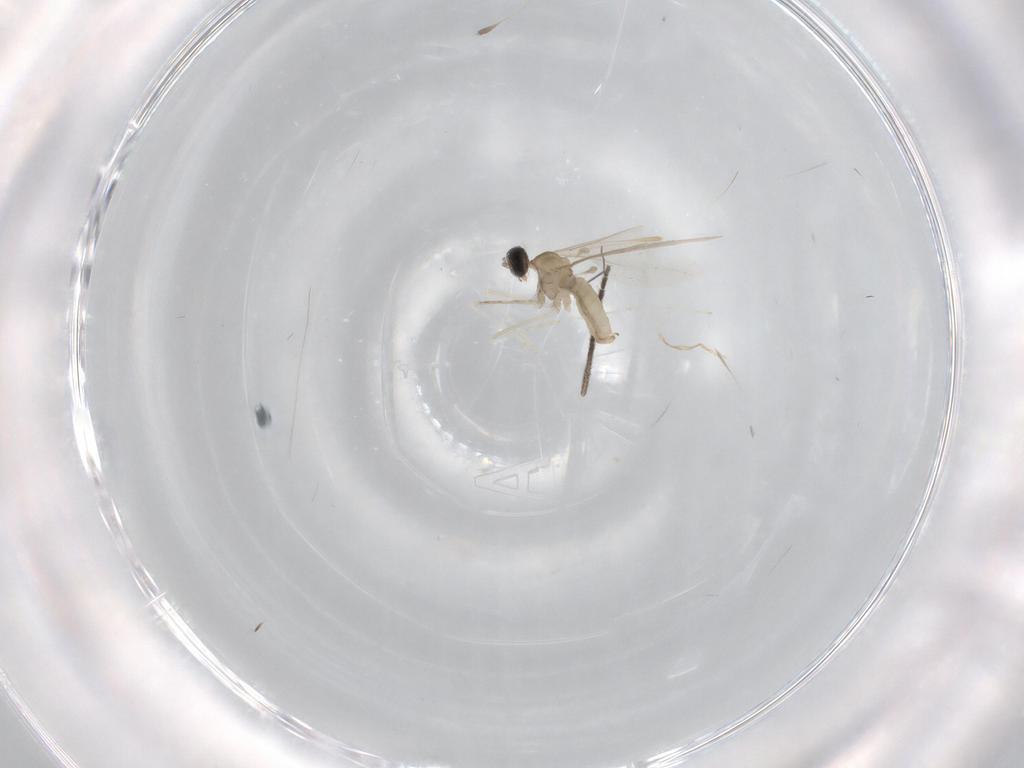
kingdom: Animalia
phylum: Arthropoda
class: Insecta
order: Diptera
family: Cecidomyiidae
